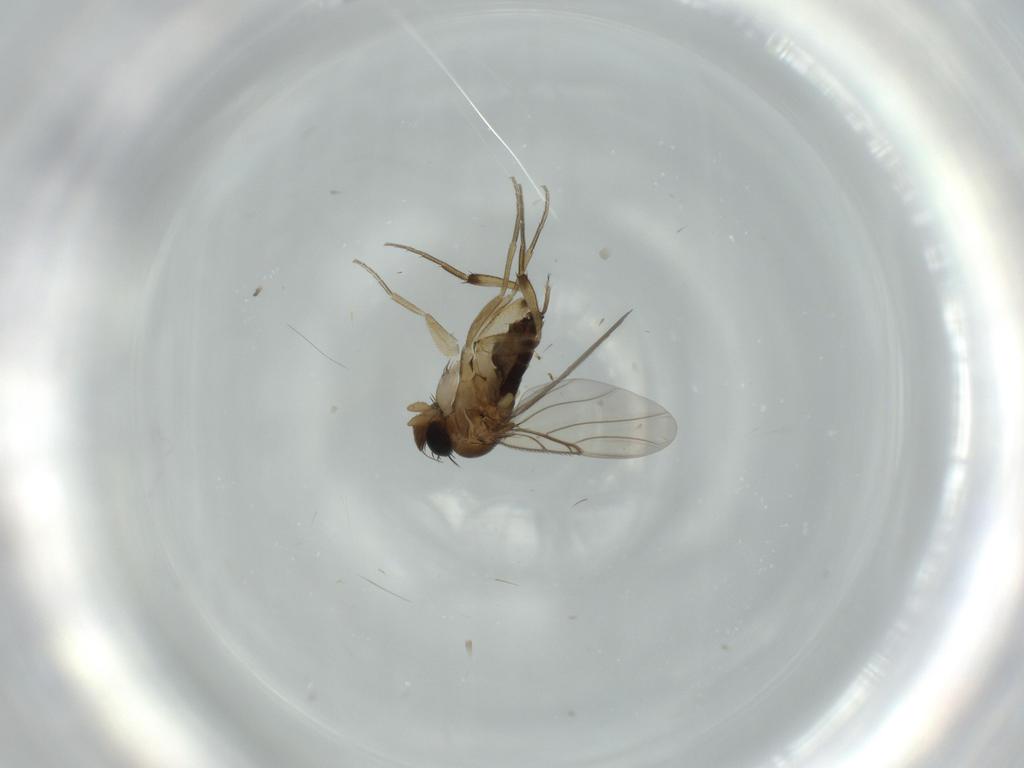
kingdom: Animalia
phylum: Arthropoda
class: Insecta
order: Diptera
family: Phoridae
